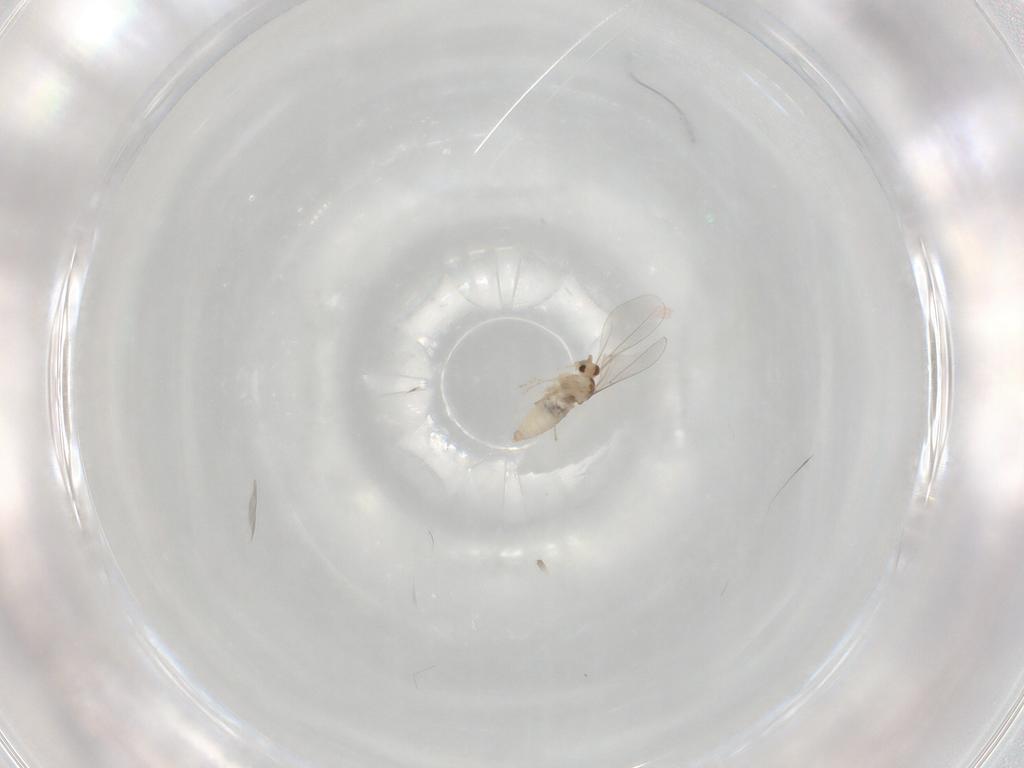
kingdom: Animalia
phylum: Arthropoda
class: Insecta
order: Diptera
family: Cecidomyiidae
